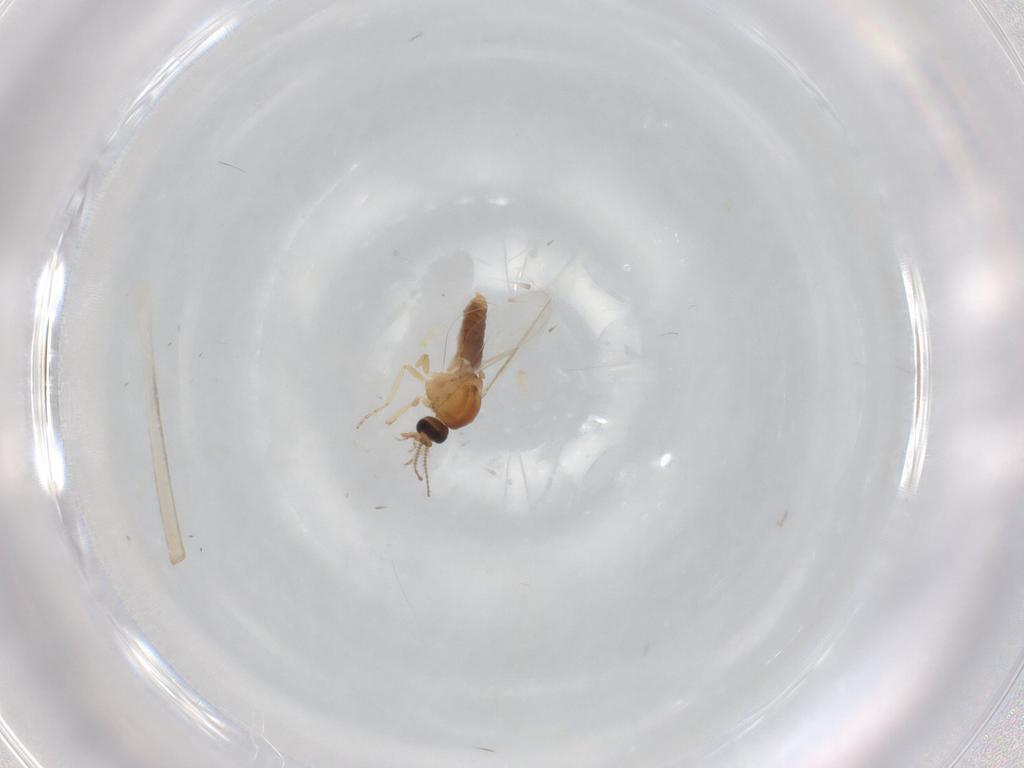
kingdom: Animalia
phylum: Arthropoda
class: Insecta
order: Diptera
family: Ceratopogonidae
